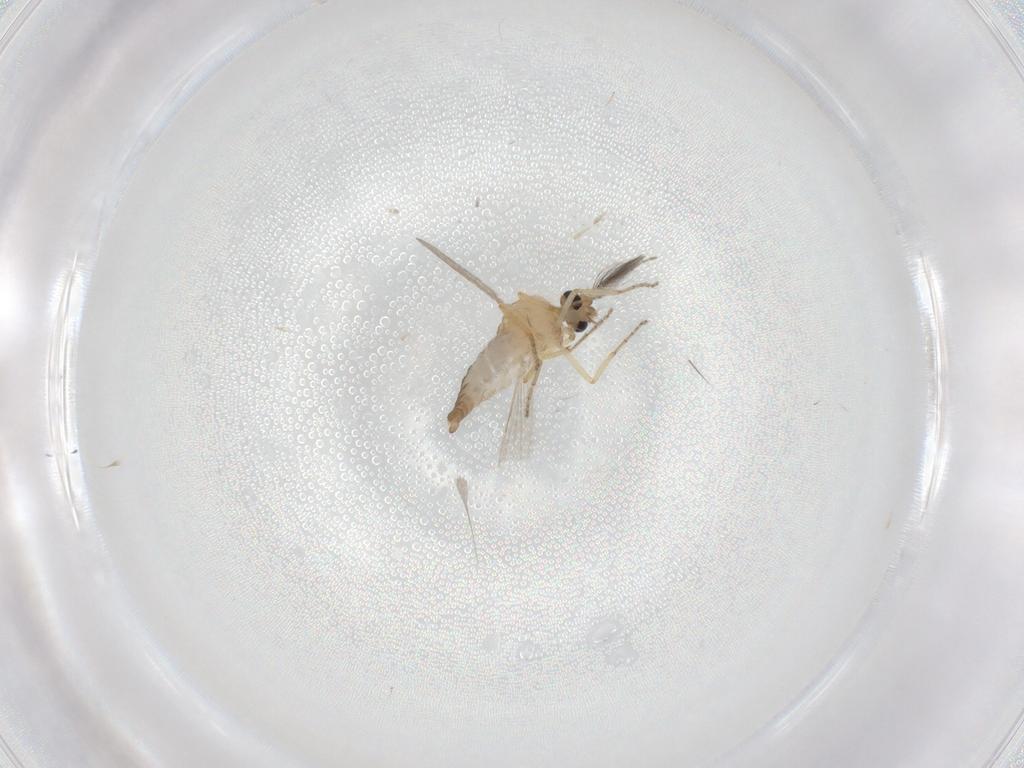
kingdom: Animalia
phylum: Arthropoda
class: Insecta
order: Diptera
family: Ceratopogonidae
